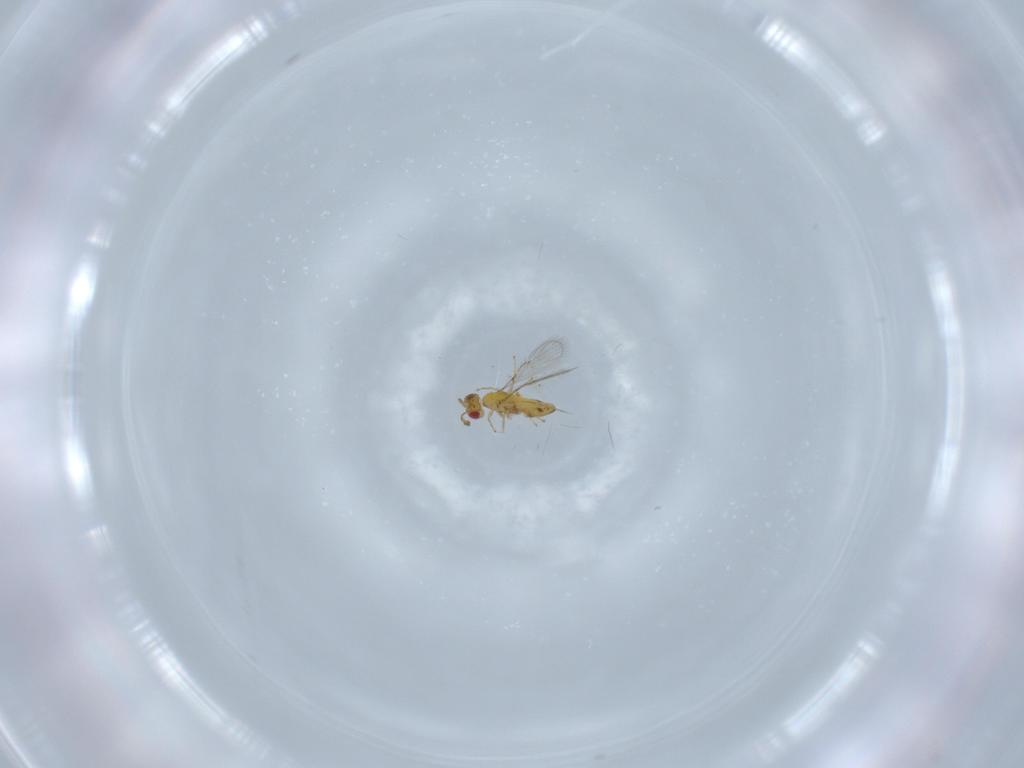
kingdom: Animalia
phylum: Arthropoda
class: Insecta
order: Hymenoptera
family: Trichogrammatidae
